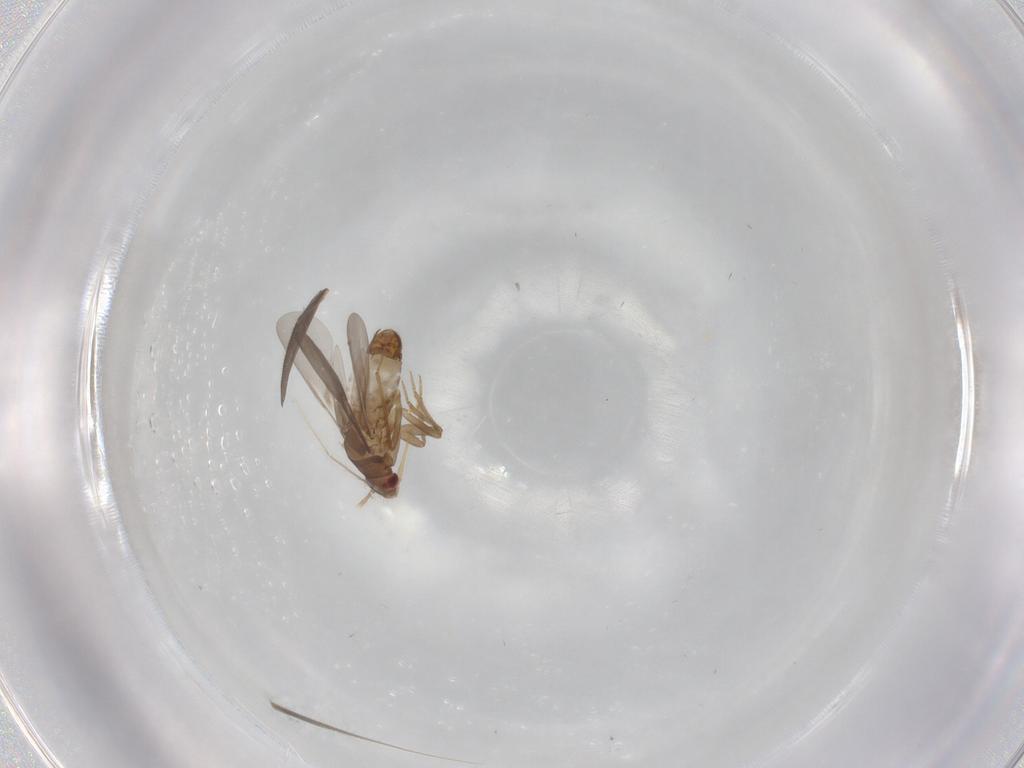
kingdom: Animalia
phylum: Arthropoda
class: Insecta
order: Hemiptera
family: Ceratocombidae
